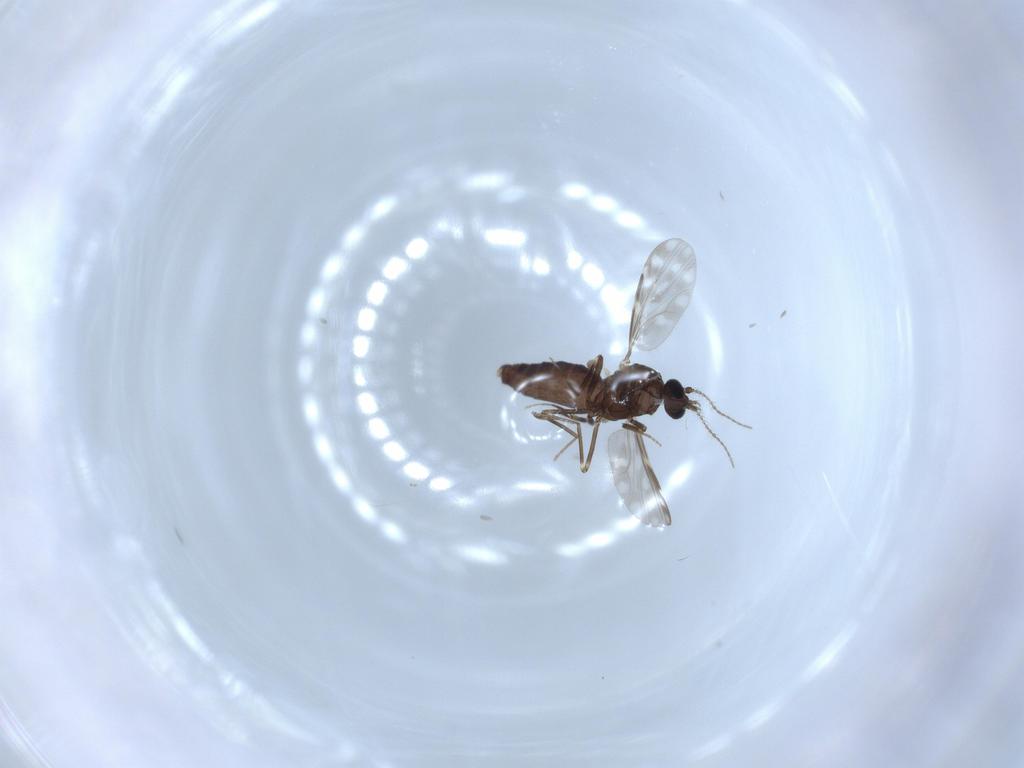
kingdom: Animalia
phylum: Arthropoda
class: Insecta
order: Diptera
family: Ceratopogonidae
